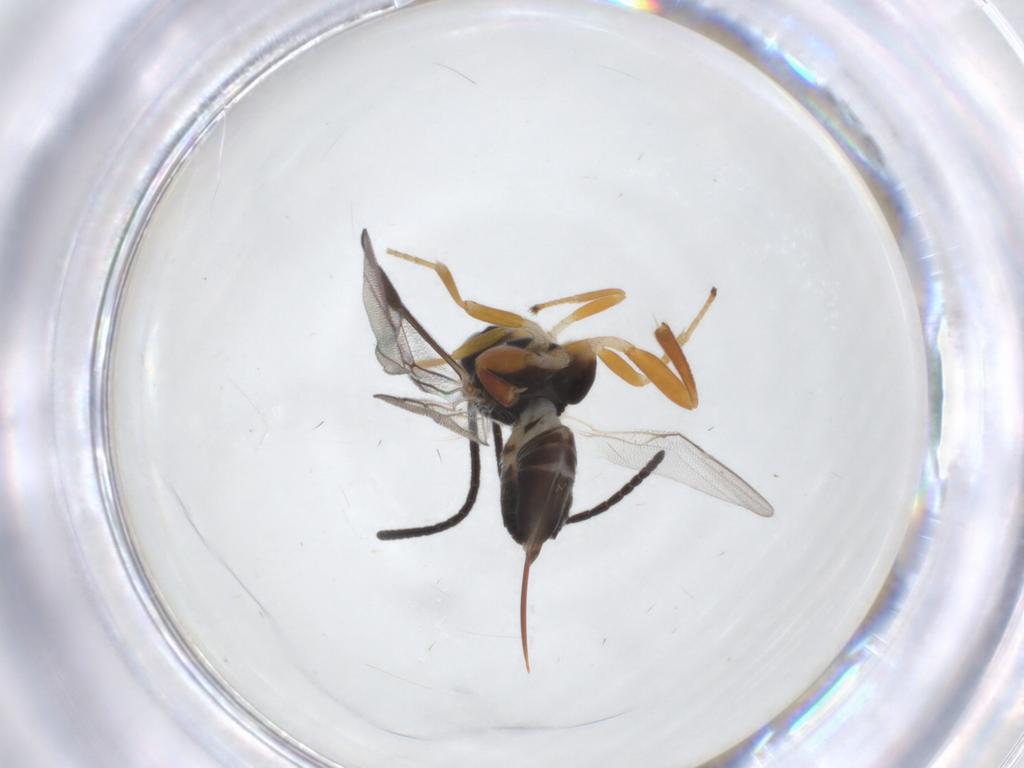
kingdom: Animalia
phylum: Arthropoda
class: Insecta
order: Hymenoptera
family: Braconidae
